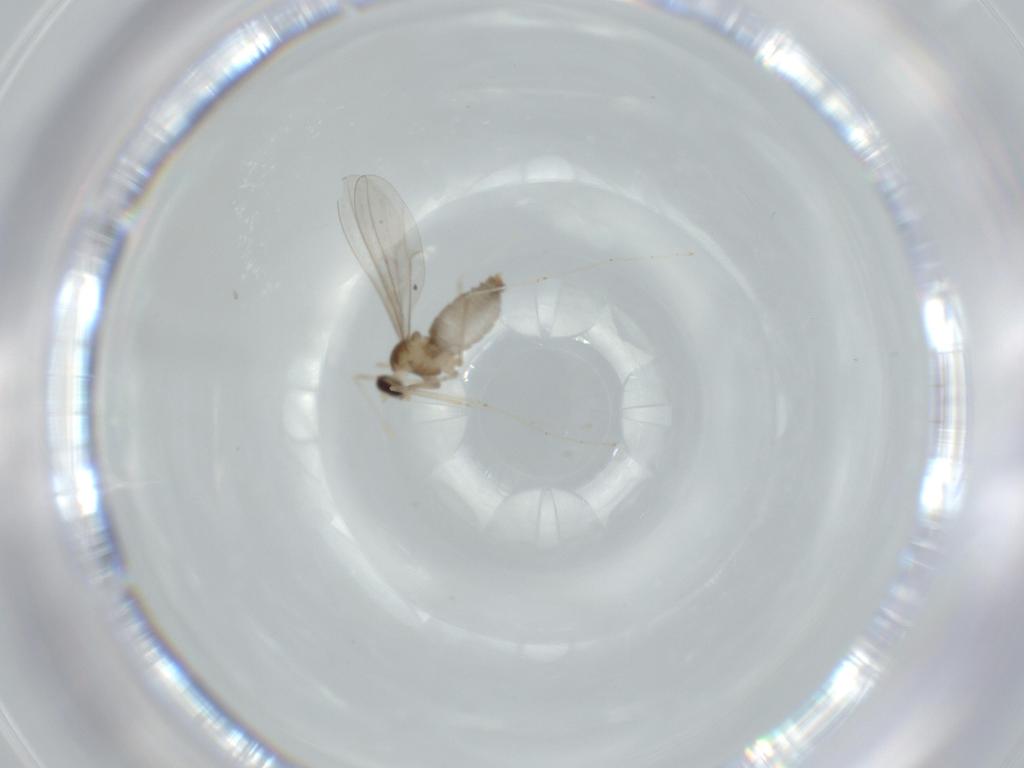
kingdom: Animalia
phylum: Arthropoda
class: Insecta
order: Diptera
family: Cecidomyiidae
